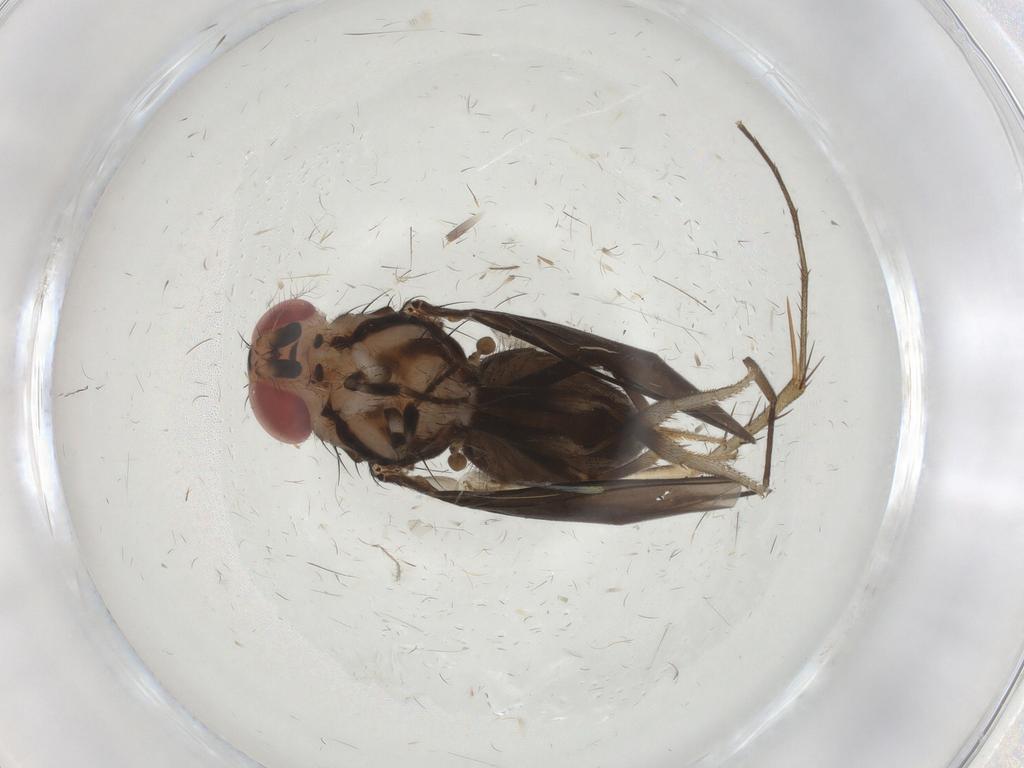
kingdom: Animalia
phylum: Arthropoda
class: Insecta
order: Diptera
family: Drosophilidae
